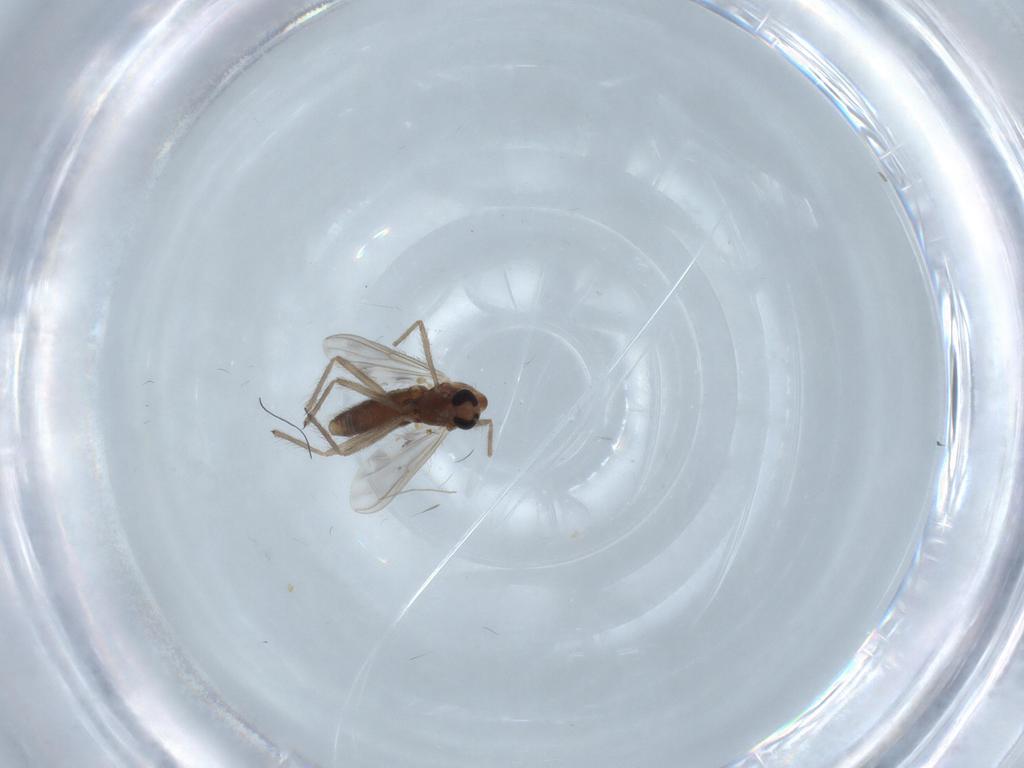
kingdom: Animalia
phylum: Arthropoda
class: Insecta
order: Diptera
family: Chironomidae
